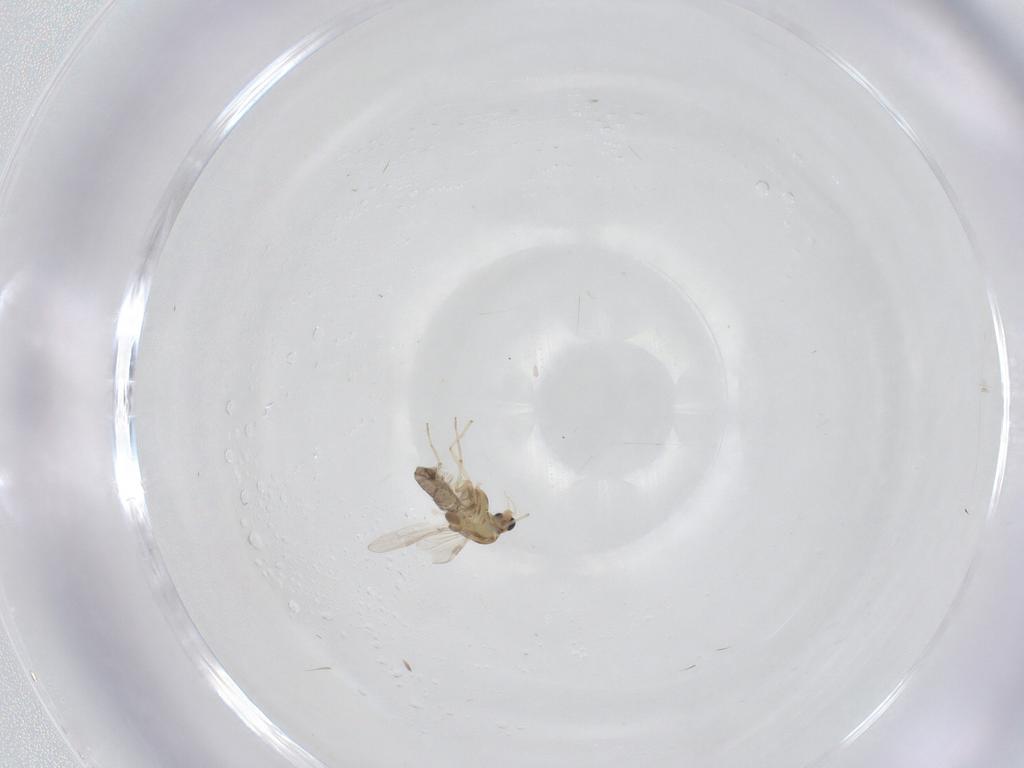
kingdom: Animalia
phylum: Arthropoda
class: Insecta
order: Diptera
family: Chironomidae
